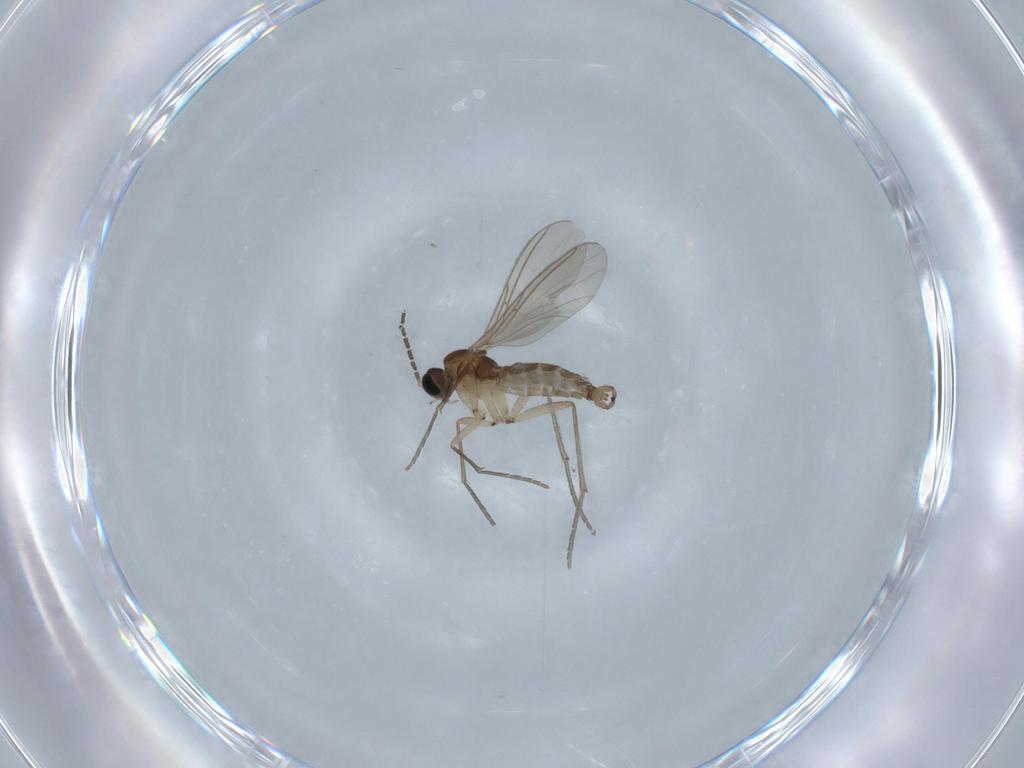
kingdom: Animalia
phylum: Arthropoda
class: Insecta
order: Diptera
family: Sciaridae
